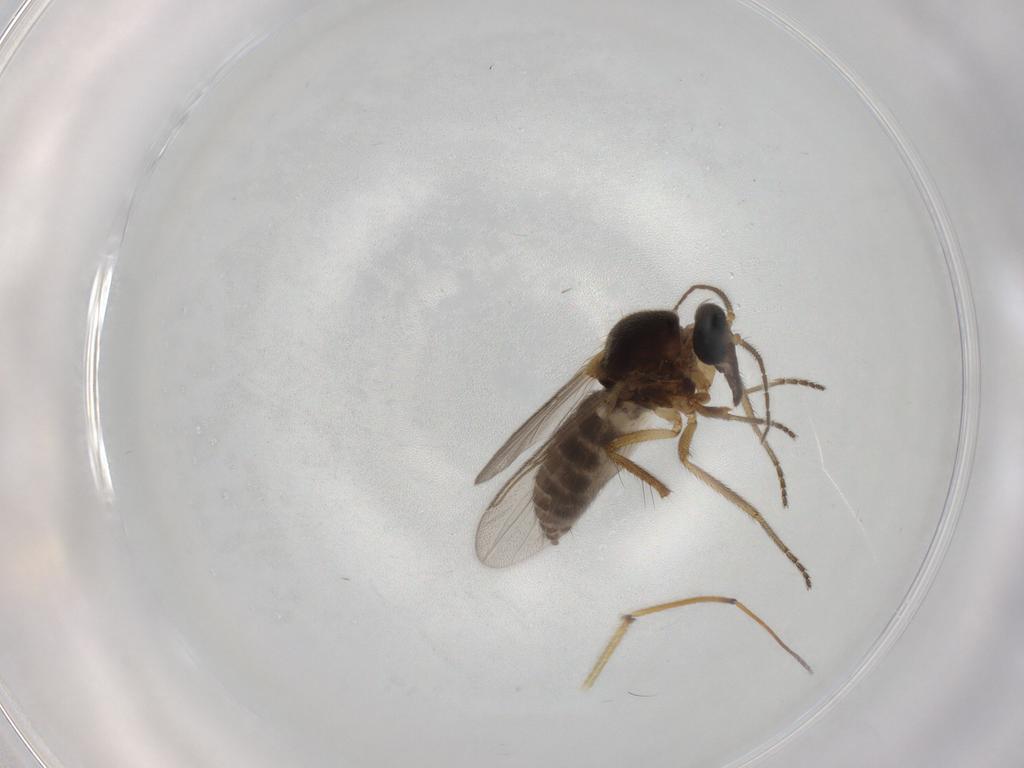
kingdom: Animalia
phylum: Arthropoda
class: Insecta
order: Diptera
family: Ceratopogonidae
